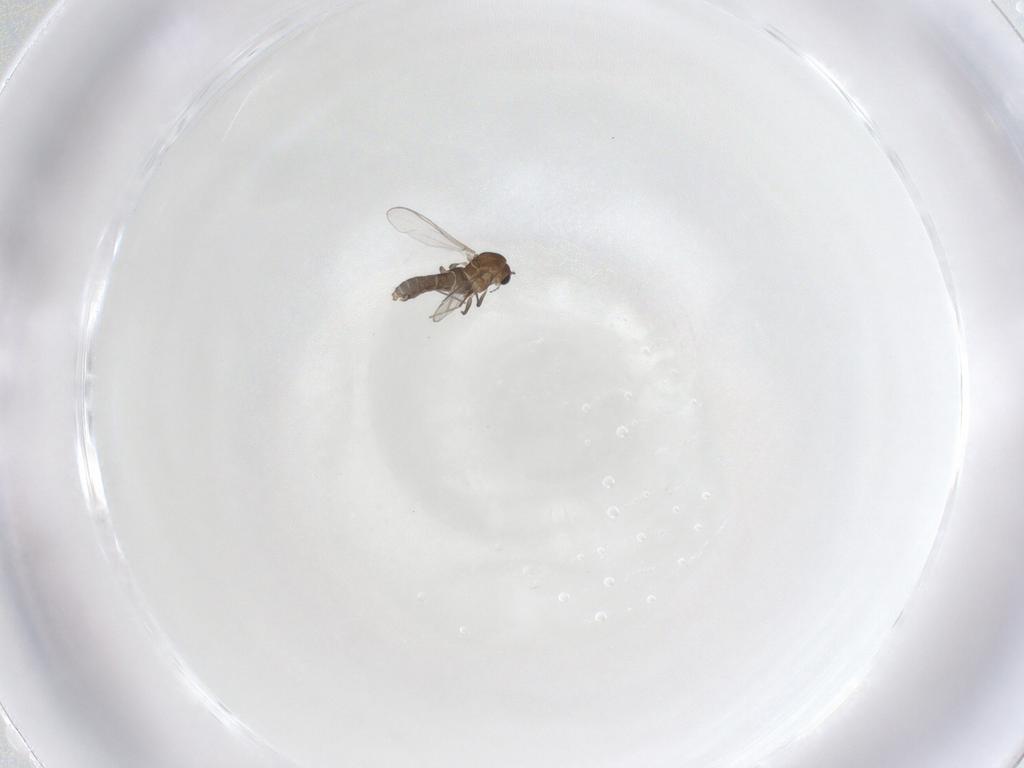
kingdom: Animalia
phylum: Arthropoda
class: Insecta
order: Diptera
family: Chironomidae
